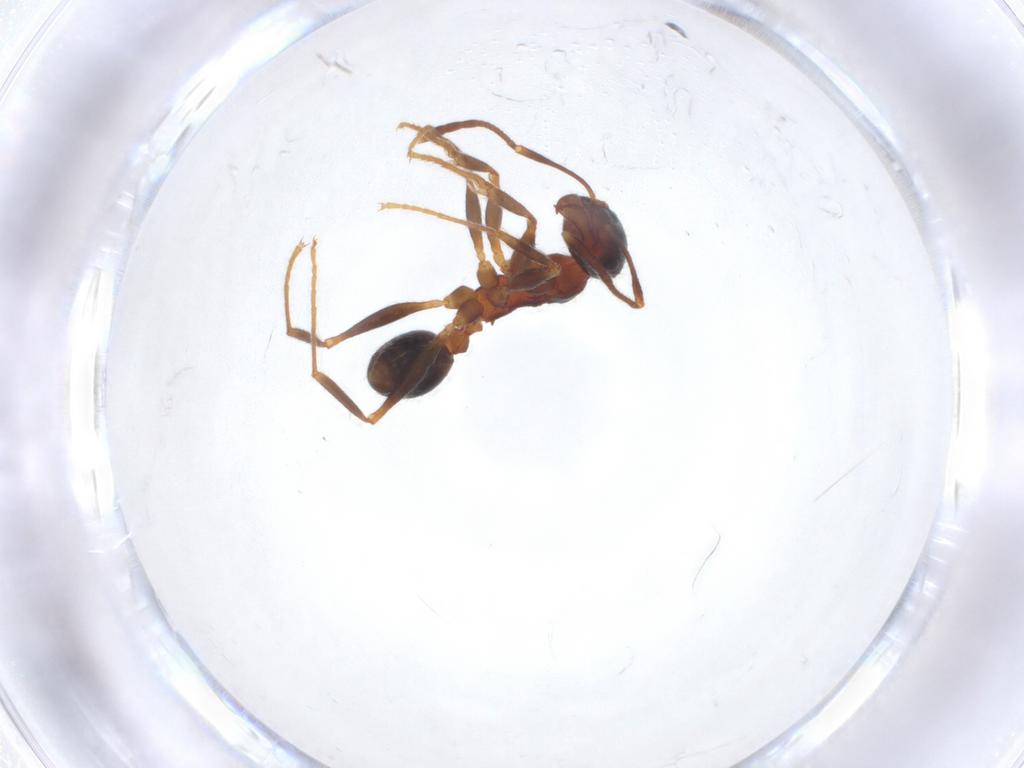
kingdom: Animalia
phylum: Arthropoda
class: Insecta
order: Hymenoptera
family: Formicidae
